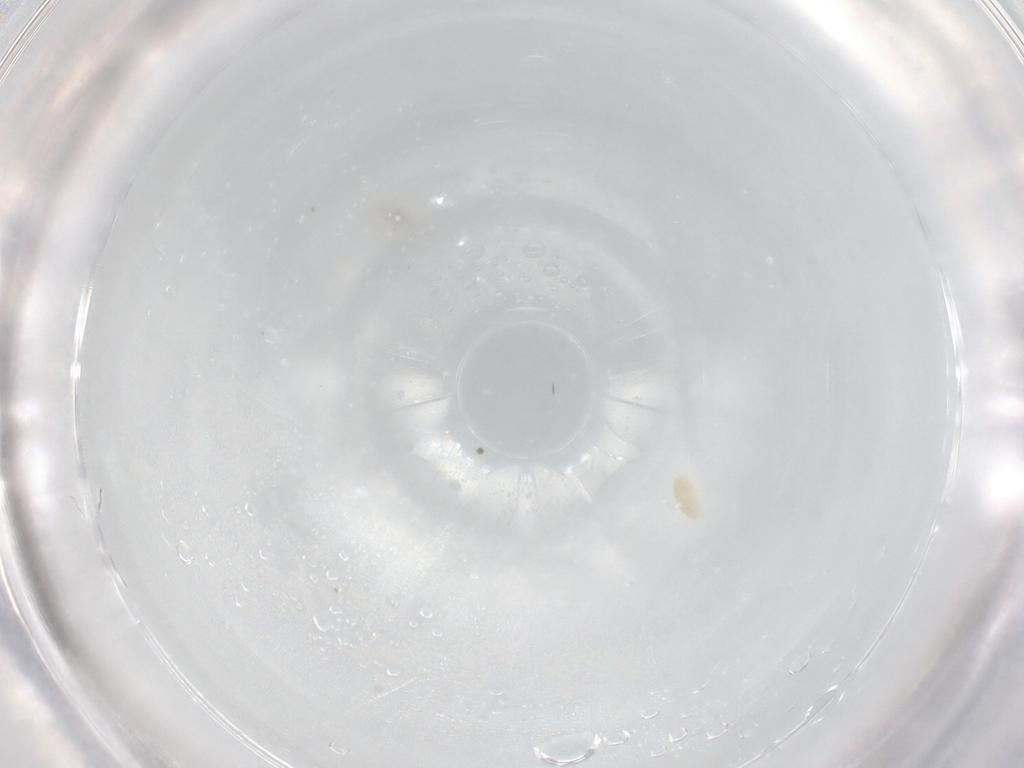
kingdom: Animalia
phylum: Arthropoda
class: Arachnida
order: Trombidiformes
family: Eupodidae
